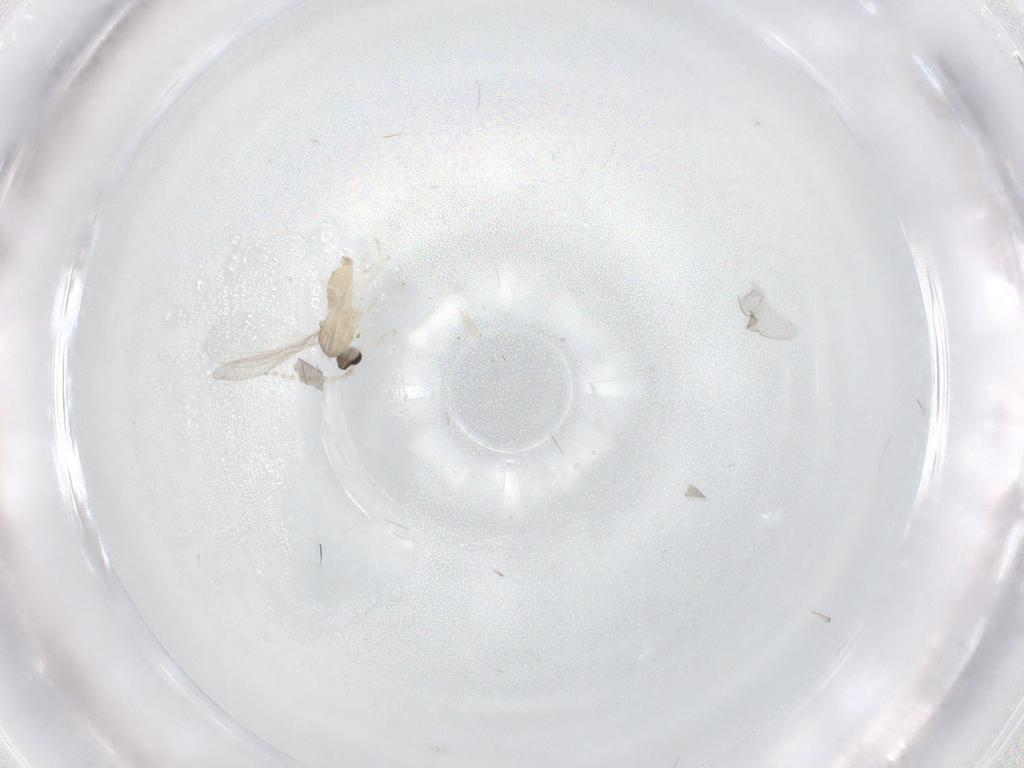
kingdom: Animalia
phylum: Arthropoda
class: Insecta
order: Diptera
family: Cecidomyiidae
